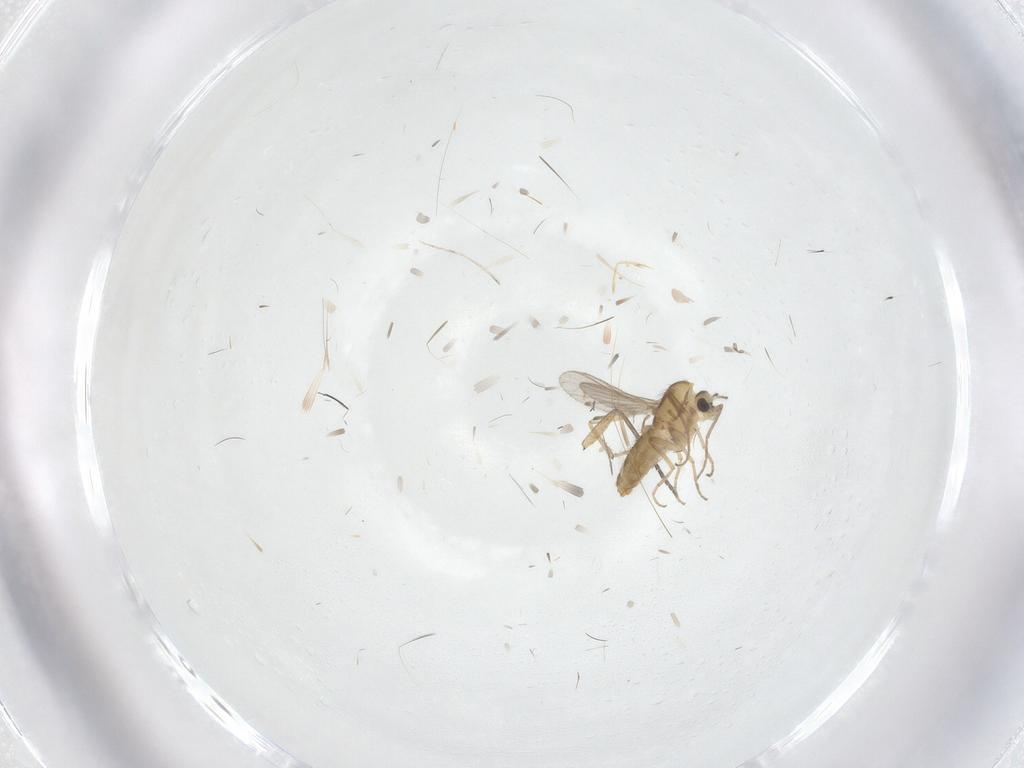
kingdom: Animalia
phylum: Arthropoda
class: Insecta
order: Diptera
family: Chironomidae
